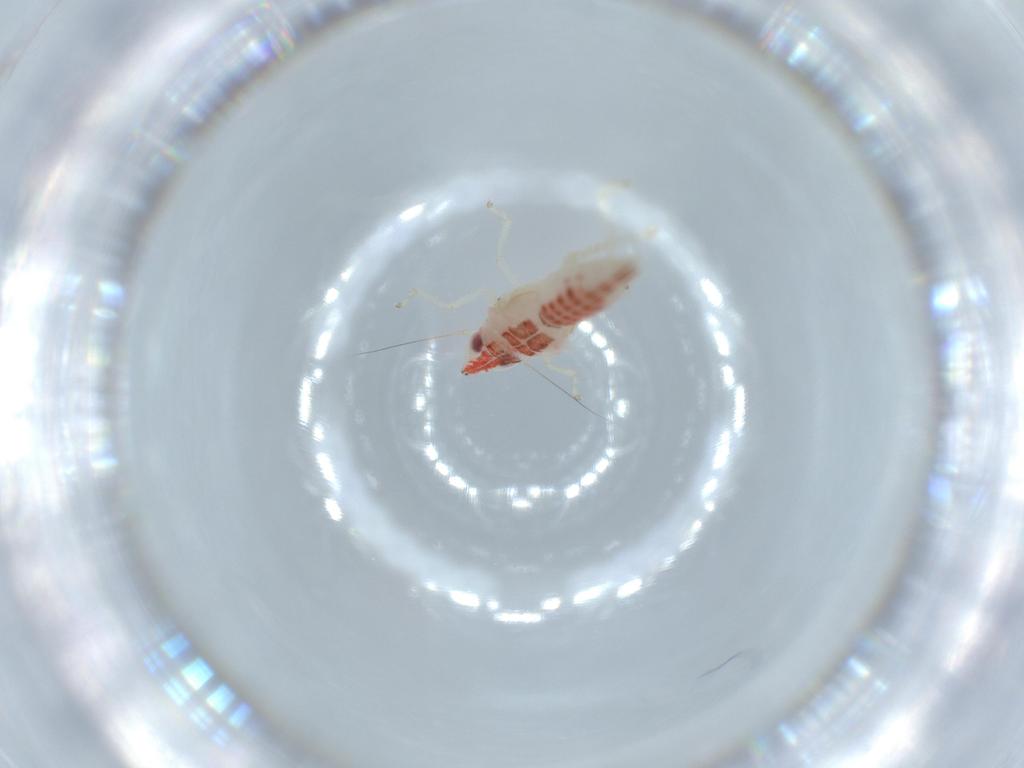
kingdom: Animalia
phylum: Arthropoda
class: Insecta
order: Hemiptera
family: Cicadellidae
